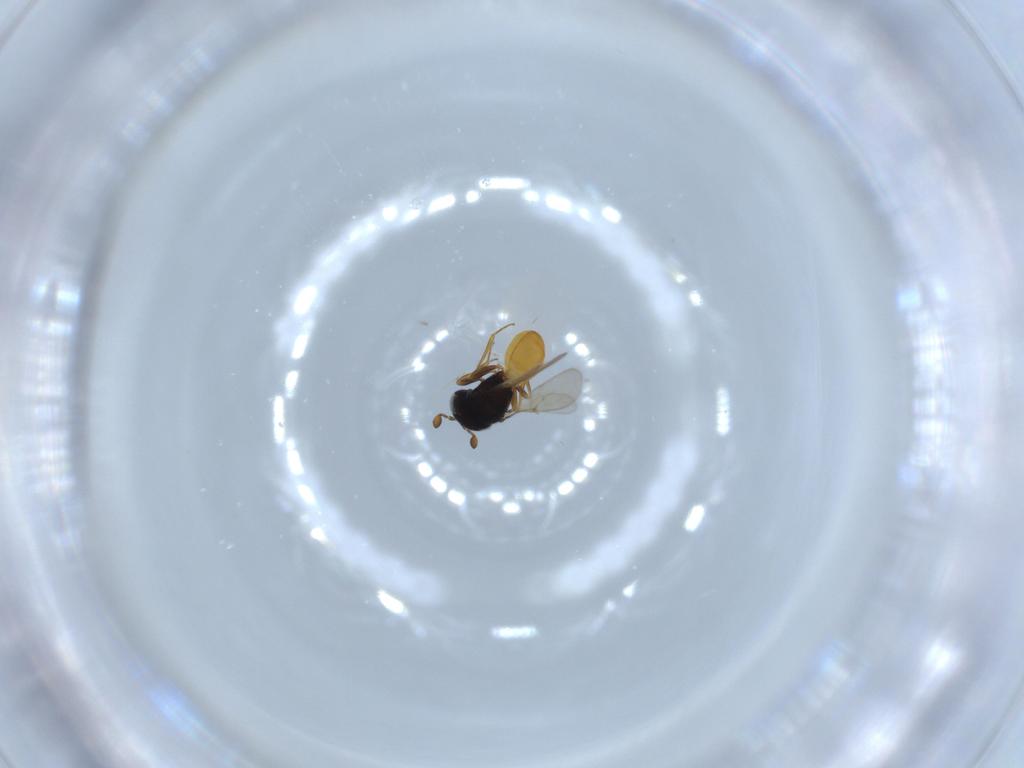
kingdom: Animalia
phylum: Arthropoda
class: Insecta
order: Hymenoptera
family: Scelionidae
